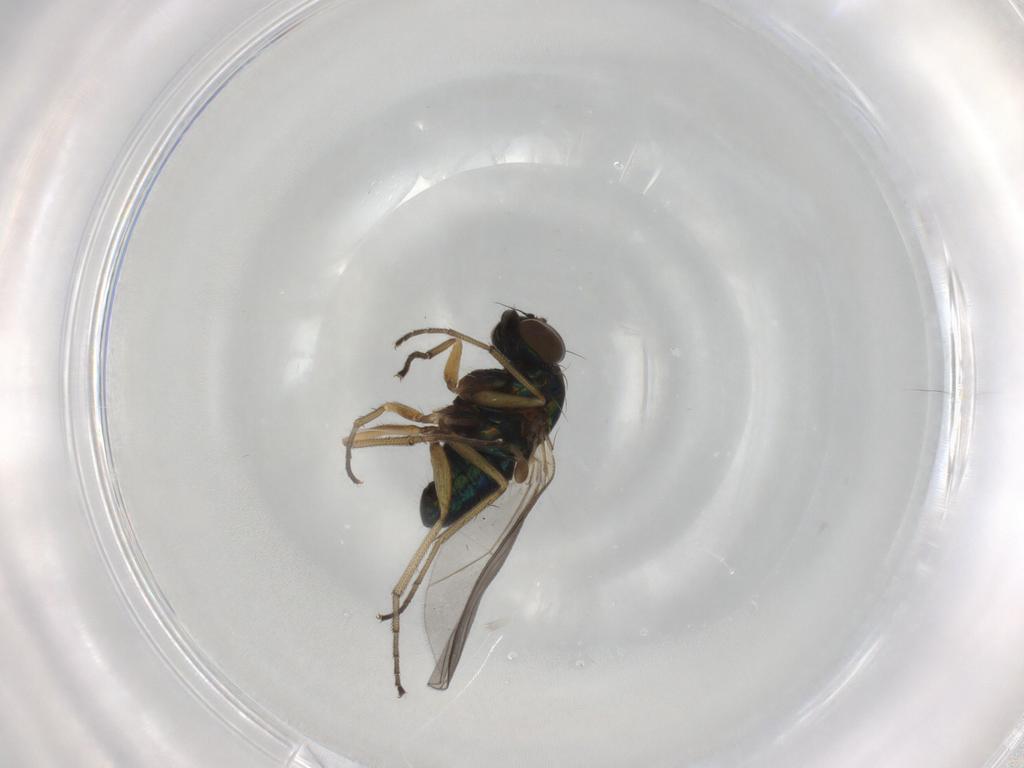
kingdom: Animalia
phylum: Arthropoda
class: Insecta
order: Diptera
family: Dolichopodidae
